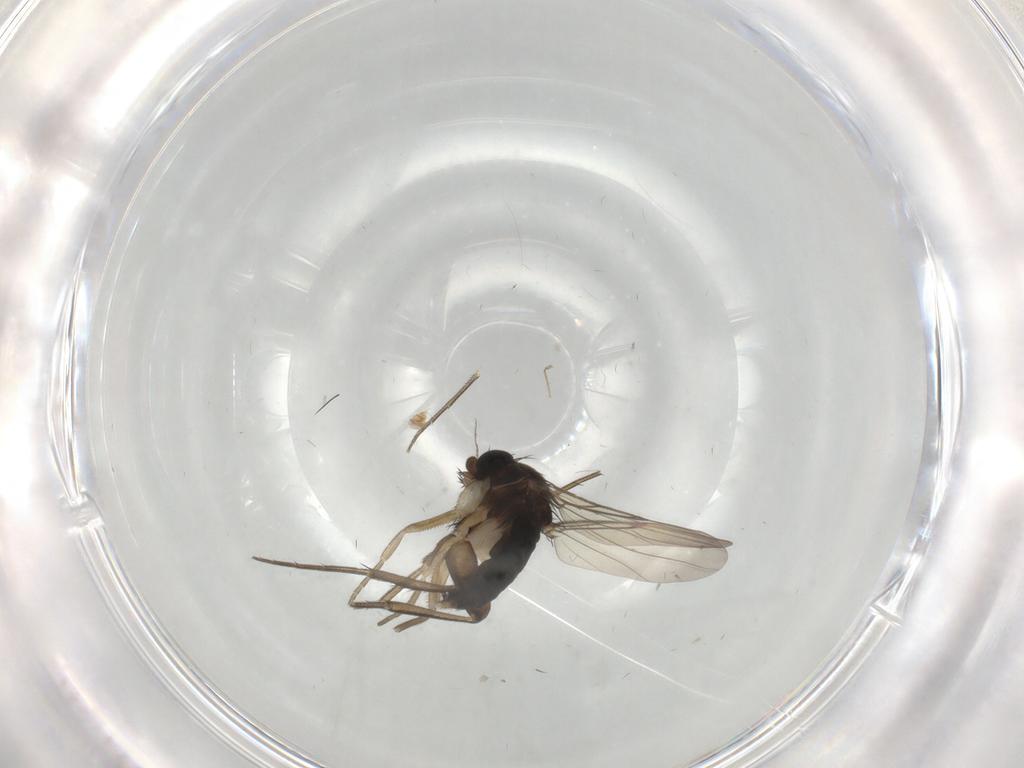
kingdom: Animalia
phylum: Arthropoda
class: Insecta
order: Diptera
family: Phoridae
